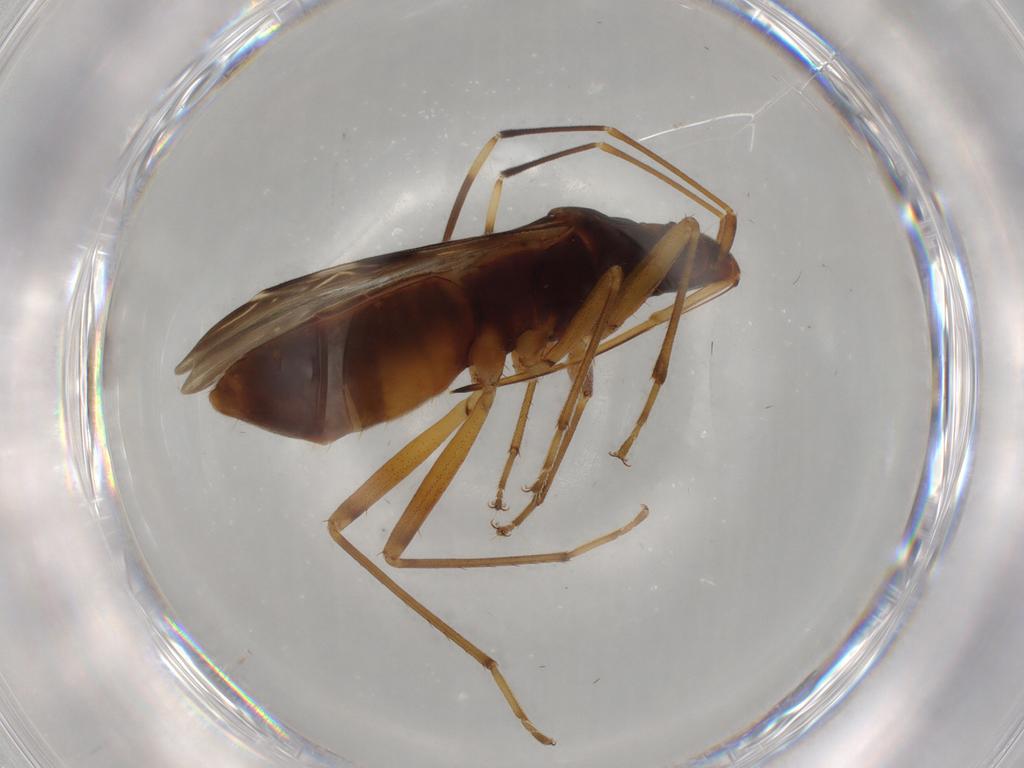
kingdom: Animalia
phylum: Arthropoda
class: Insecta
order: Hemiptera
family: Rhyparochromidae
